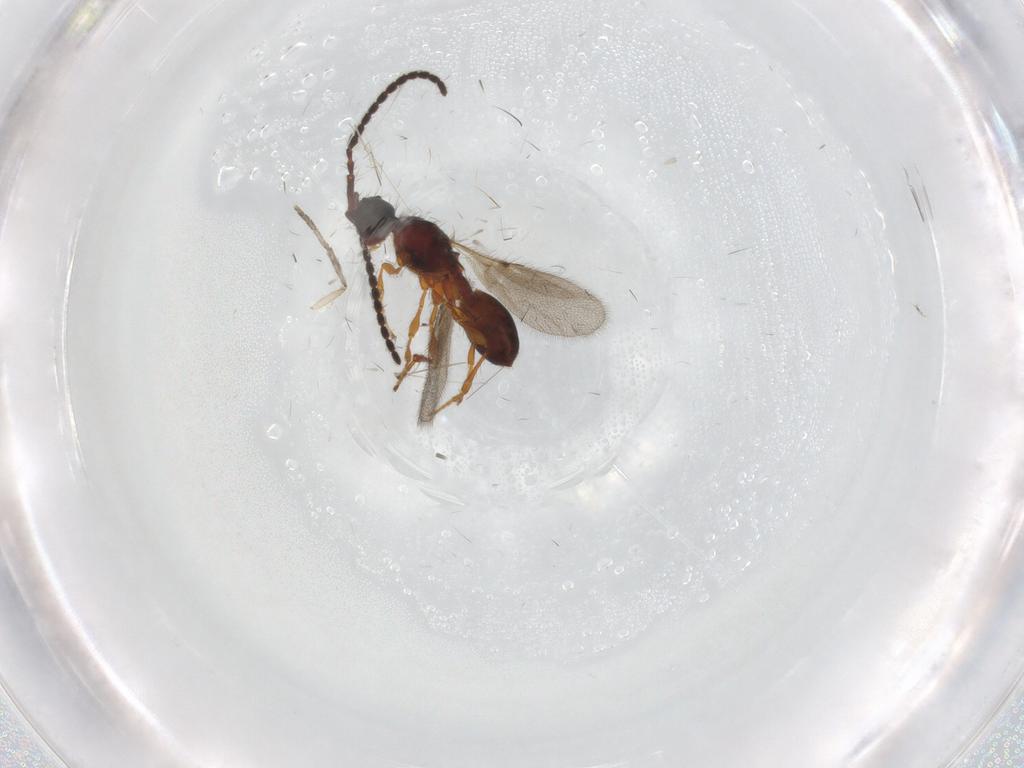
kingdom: Animalia
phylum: Arthropoda
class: Insecta
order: Hymenoptera
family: Diapriidae
